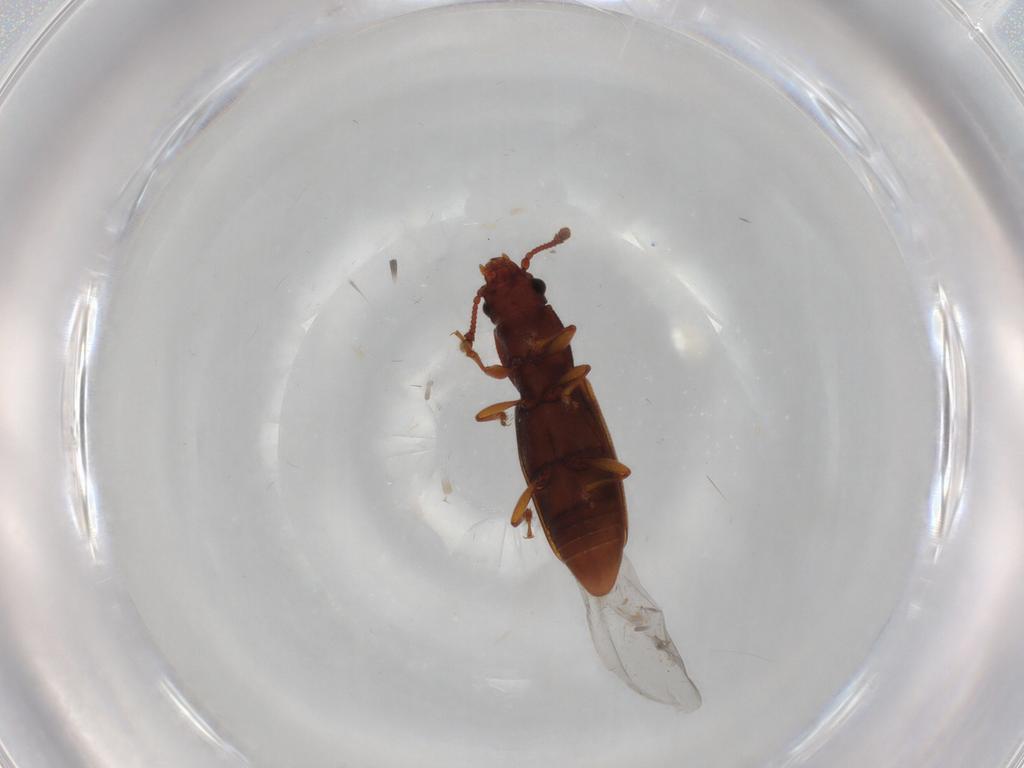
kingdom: Animalia
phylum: Arthropoda
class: Insecta
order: Coleoptera
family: Monotomidae
